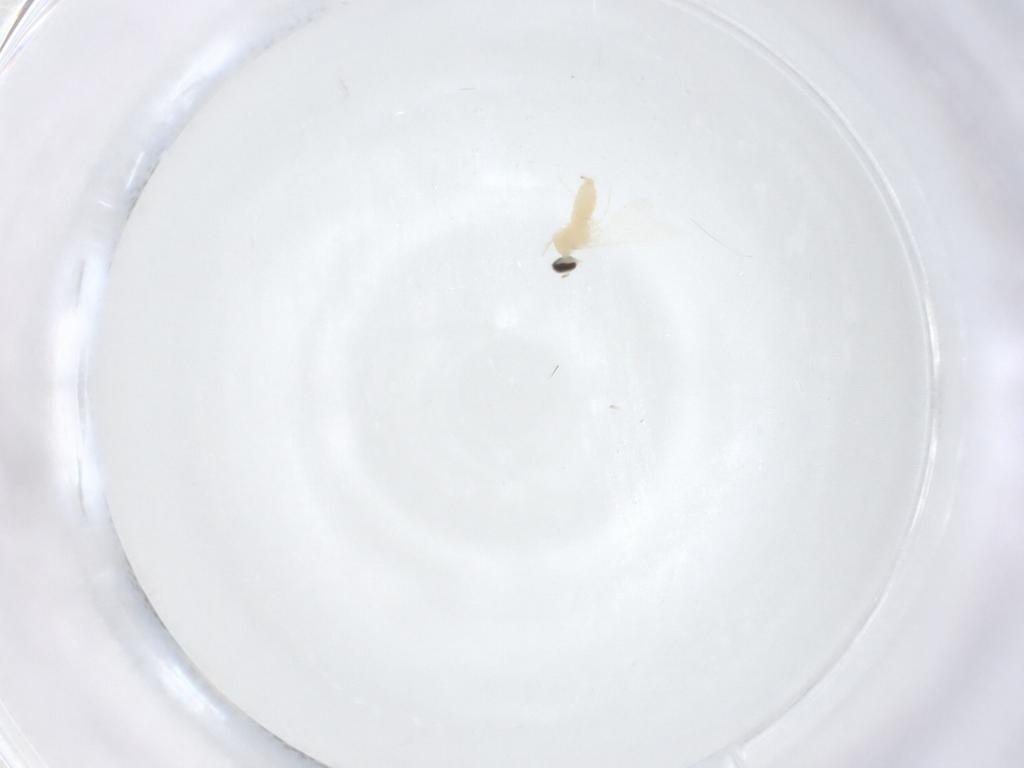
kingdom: Animalia
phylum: Arthropoda
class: Insecta
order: Diptera
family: Cecidomyiidae
